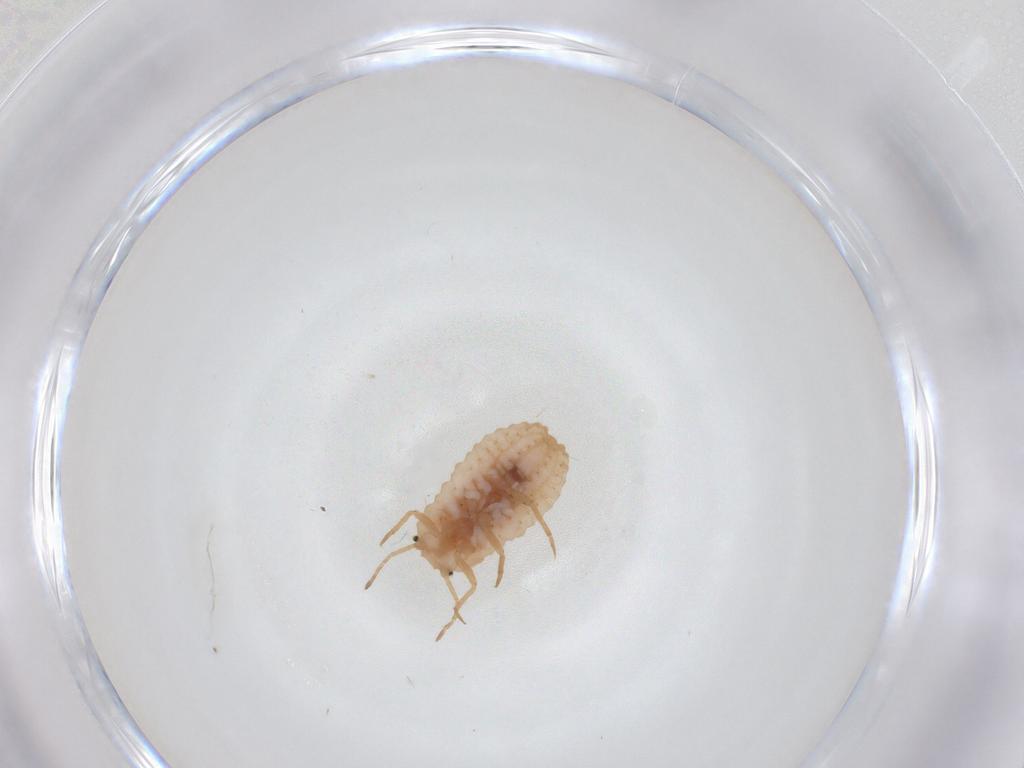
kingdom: Animalia
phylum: Arthropoda
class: Insecta
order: Hemiptera
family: Coccoidea_incertae_sedis
